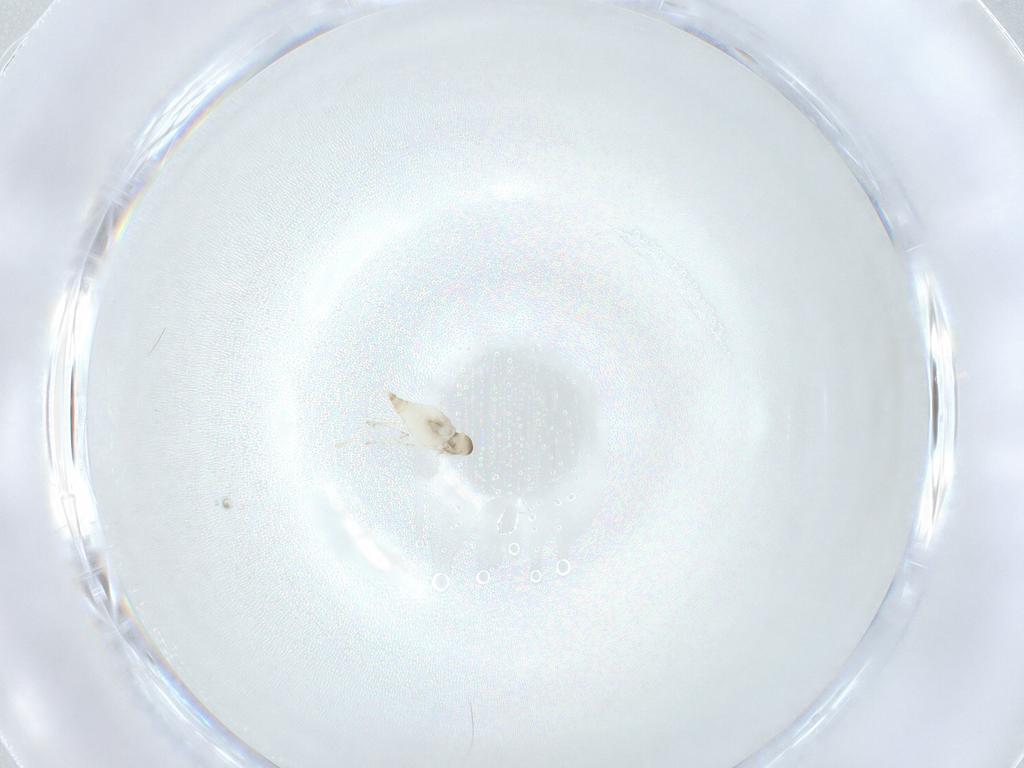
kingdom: Animalia
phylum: Arthropoda
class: Insecta
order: Diptera
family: Cecidomyiidae
